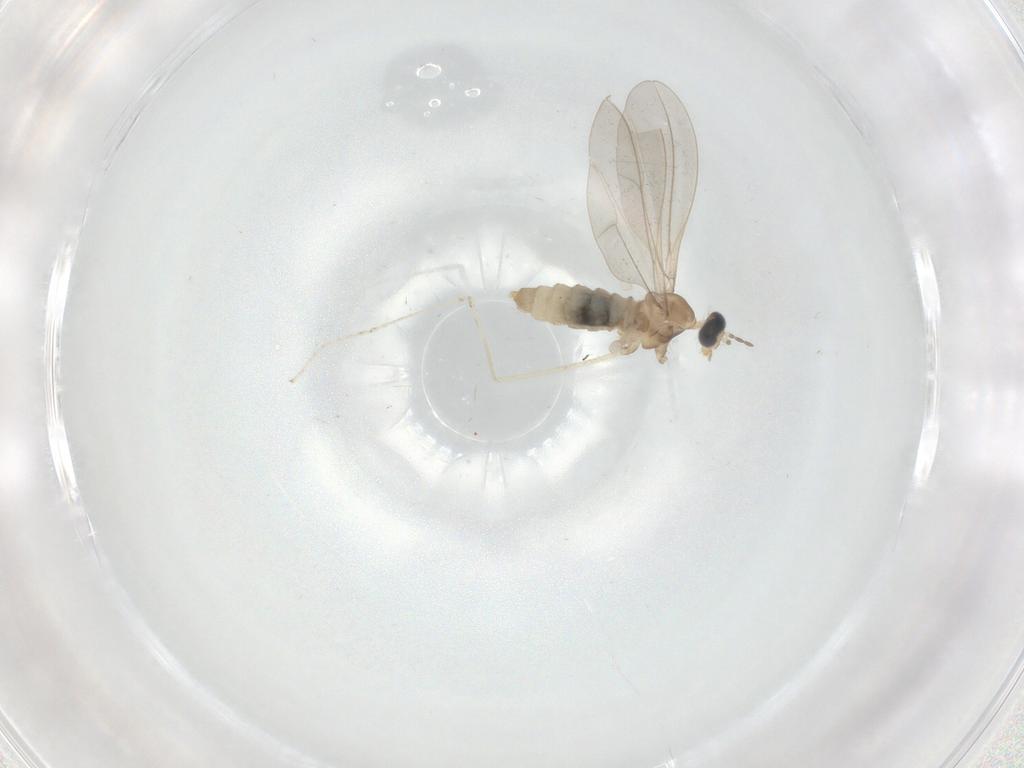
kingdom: Animalia
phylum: Arthropoda
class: Insecta
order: Diptera
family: Cecidomyiidae
